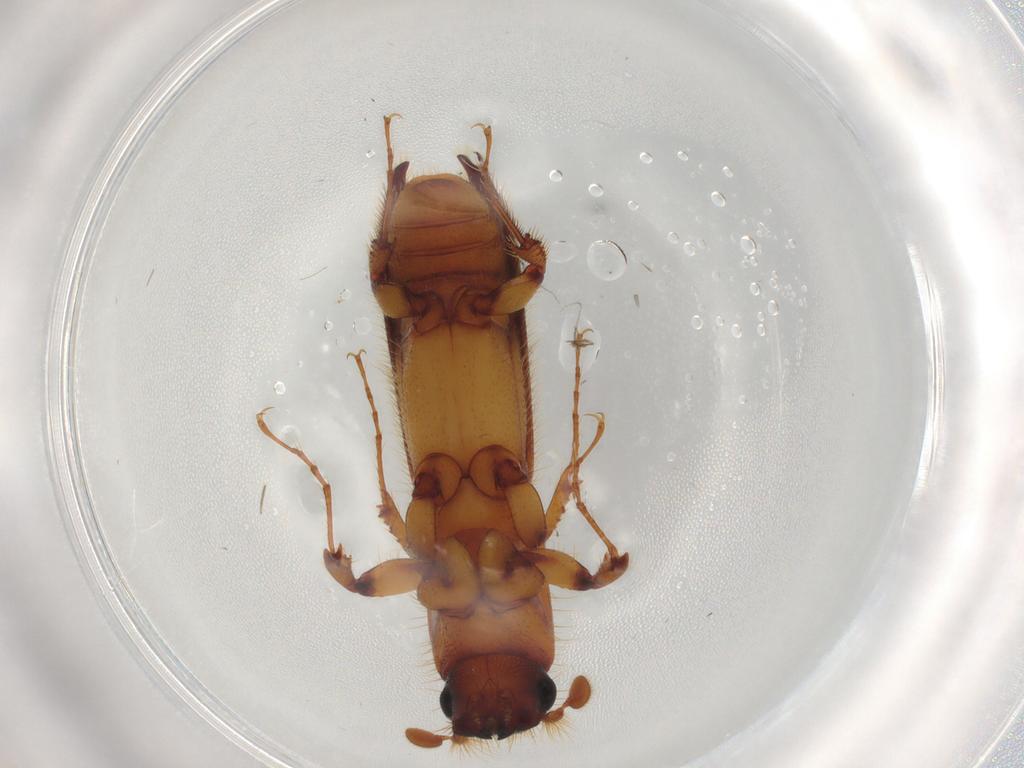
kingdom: Animalia
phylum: Arthropoda
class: Insecta
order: Coleoptera
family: Curculionidae
